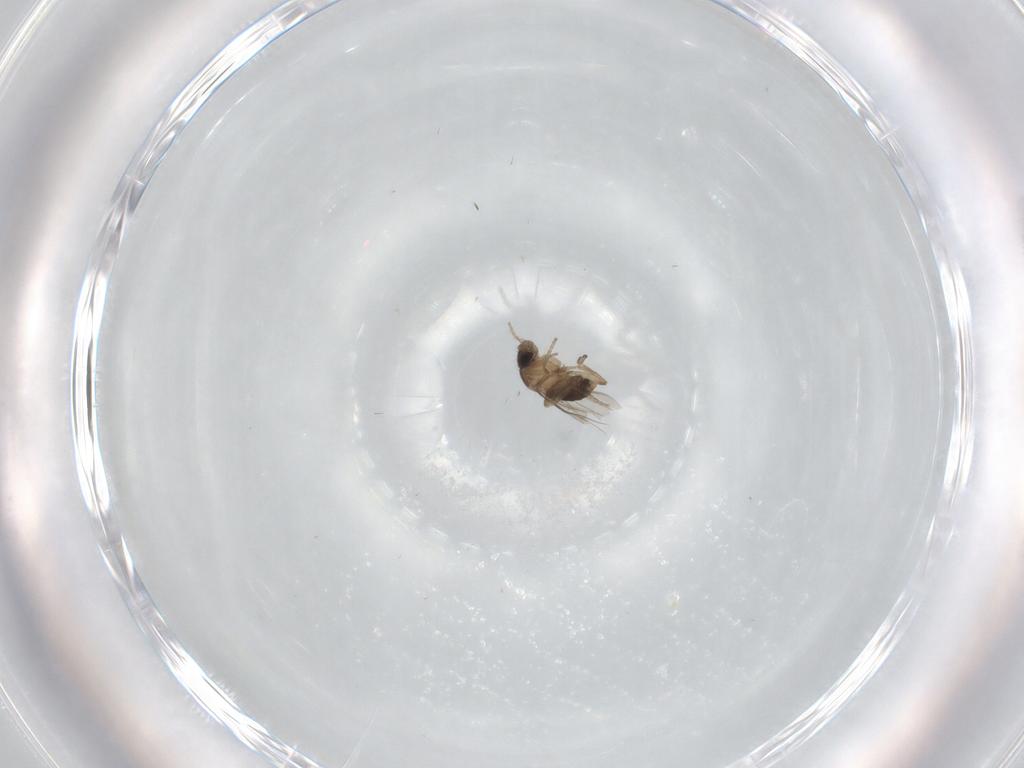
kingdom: Animalia
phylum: Arthropoda
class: Insecta
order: Diptera
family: Phoridae
